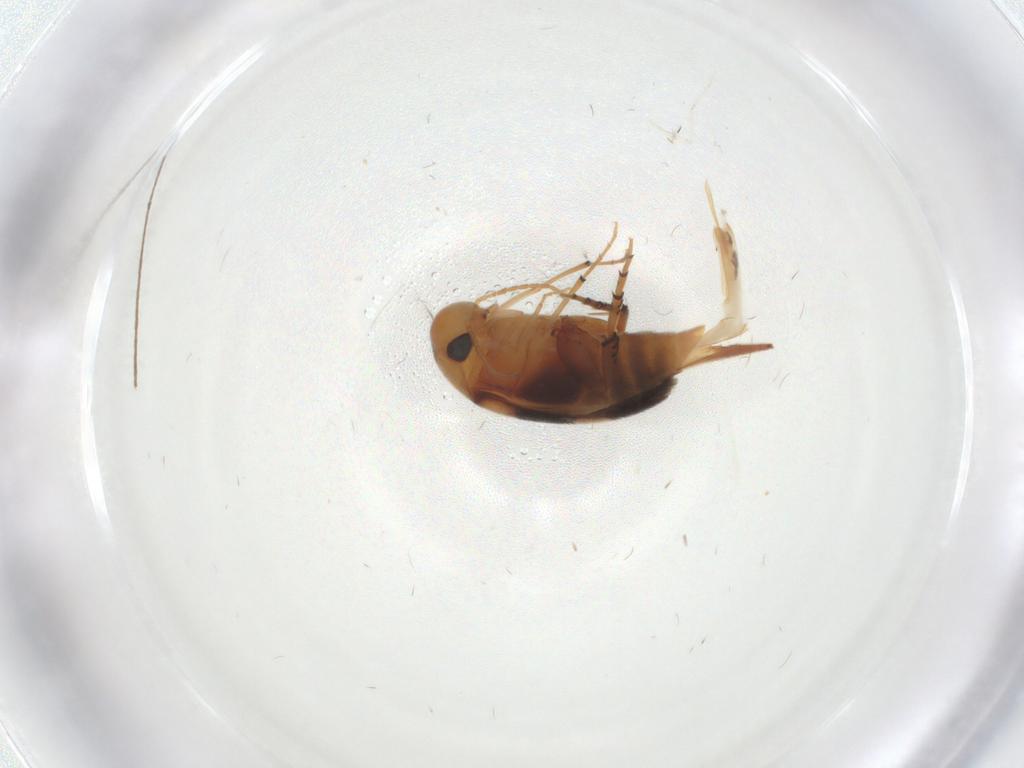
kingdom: Animalia
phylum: Arthropoda
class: Insecta
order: Coleoptera
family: Mordellidae
